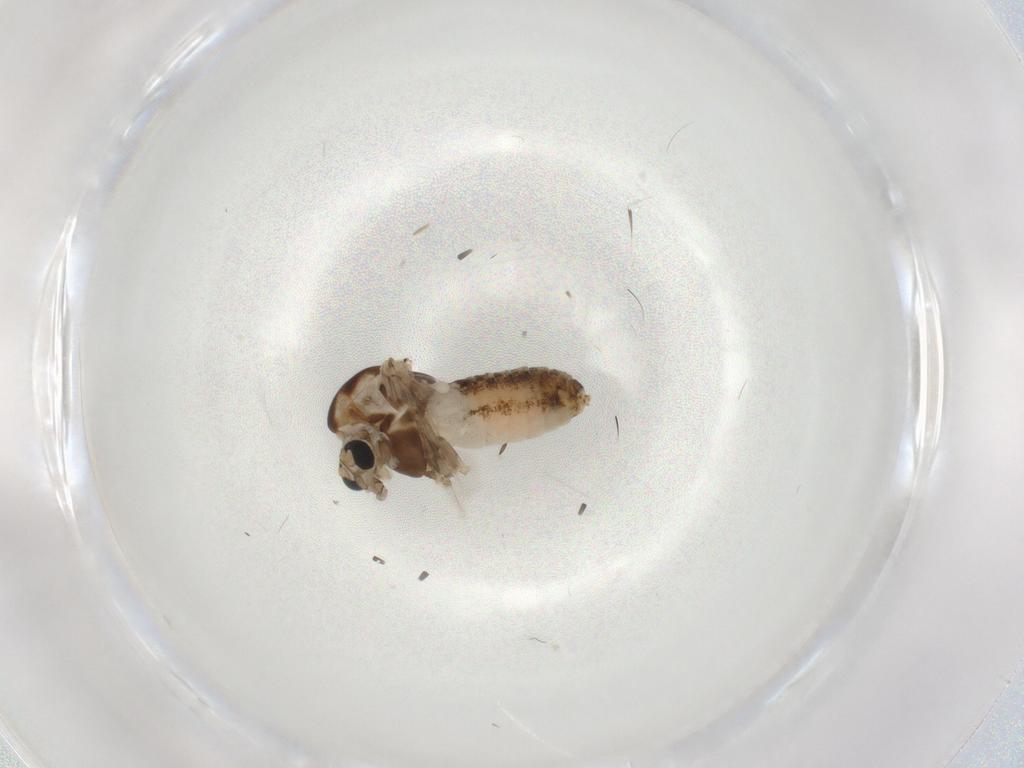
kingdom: Animalia
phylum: Arthropoda
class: Insecta
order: Diptera
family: Chironomidae
